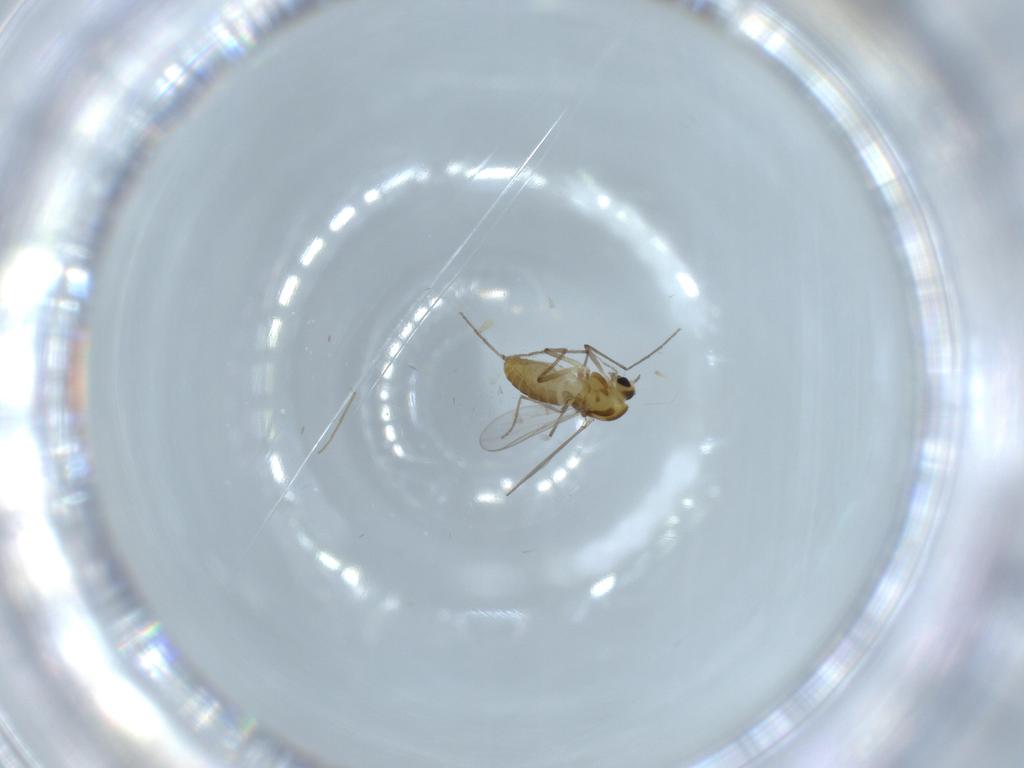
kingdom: Animalia
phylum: Arthropoda
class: Insecta
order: Diptera
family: Chironomidae
